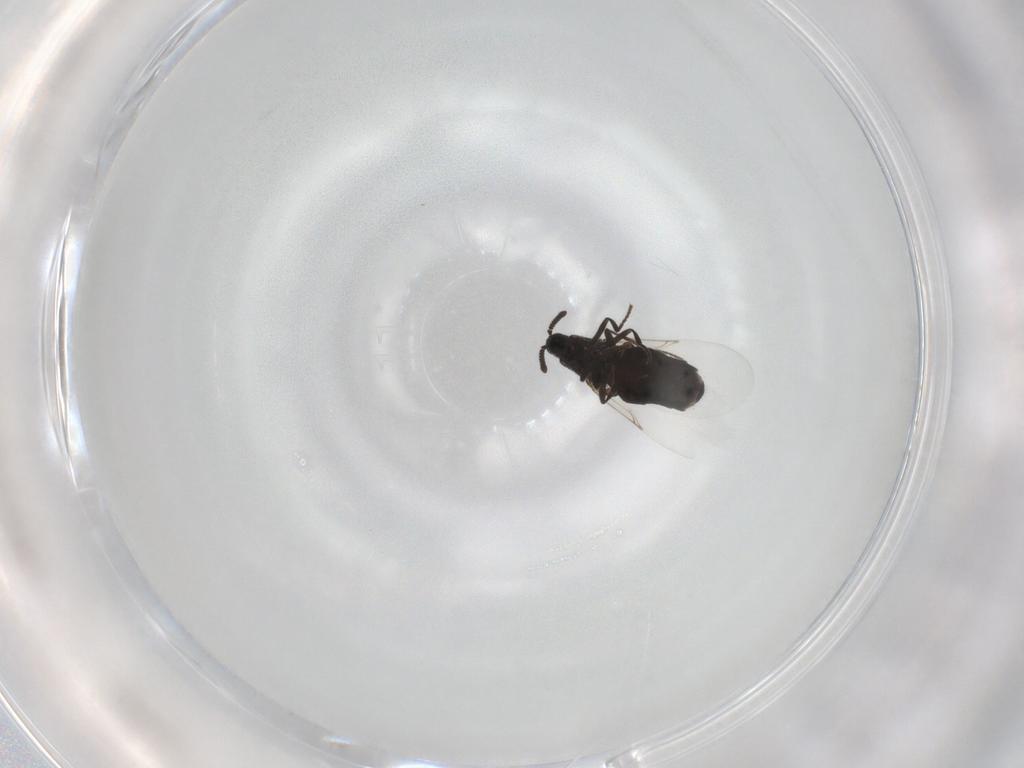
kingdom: Animalia
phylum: Arthropoda
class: Insecta
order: Diptera
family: Scatopsidae
